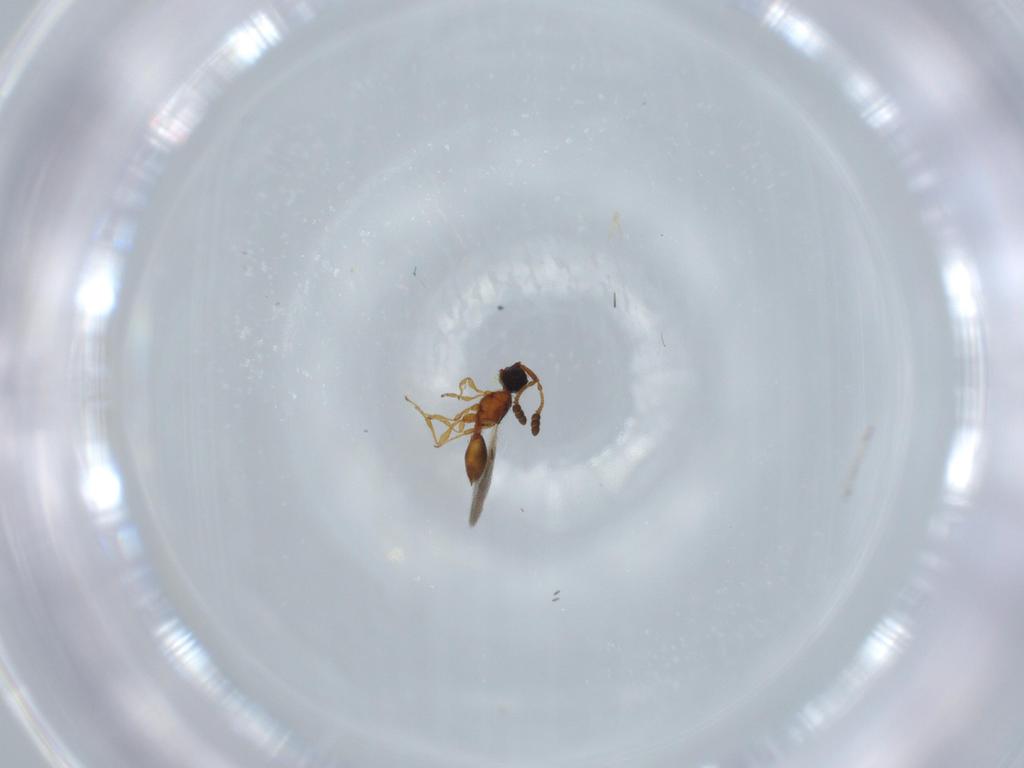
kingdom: Animalia
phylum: Arthropoda
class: Insecta
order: Hymenoptera
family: Diapriidae
